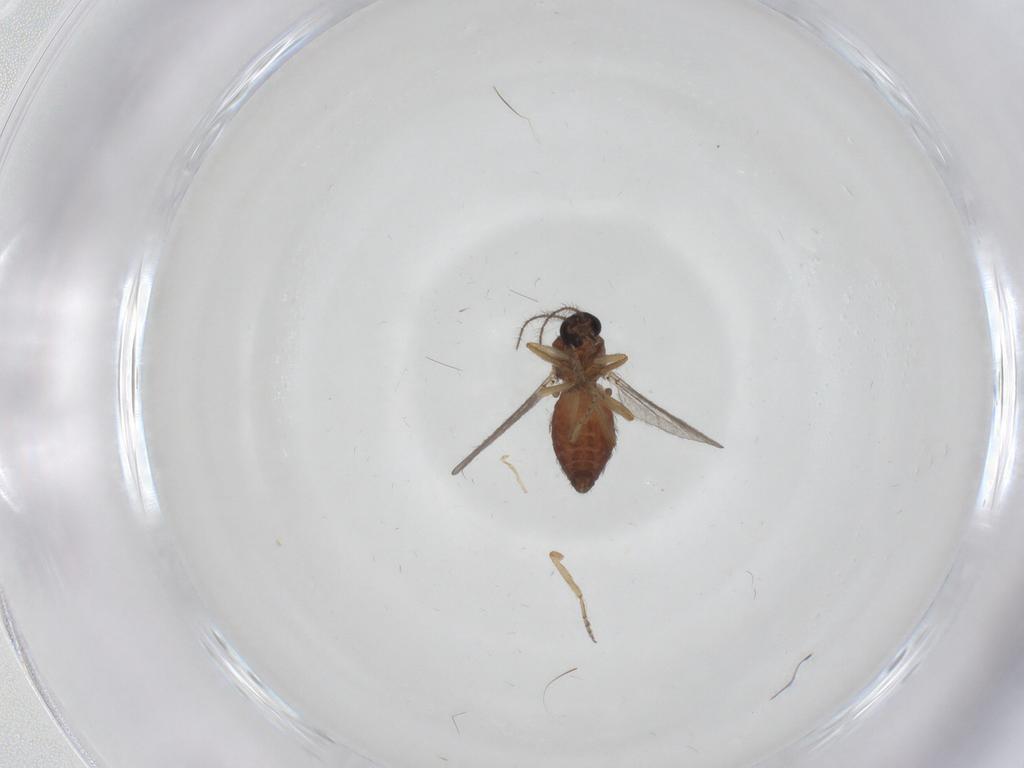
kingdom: Animalia
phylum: Arthropoda
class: Insecta
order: Diptera
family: Ceratopogonidae
